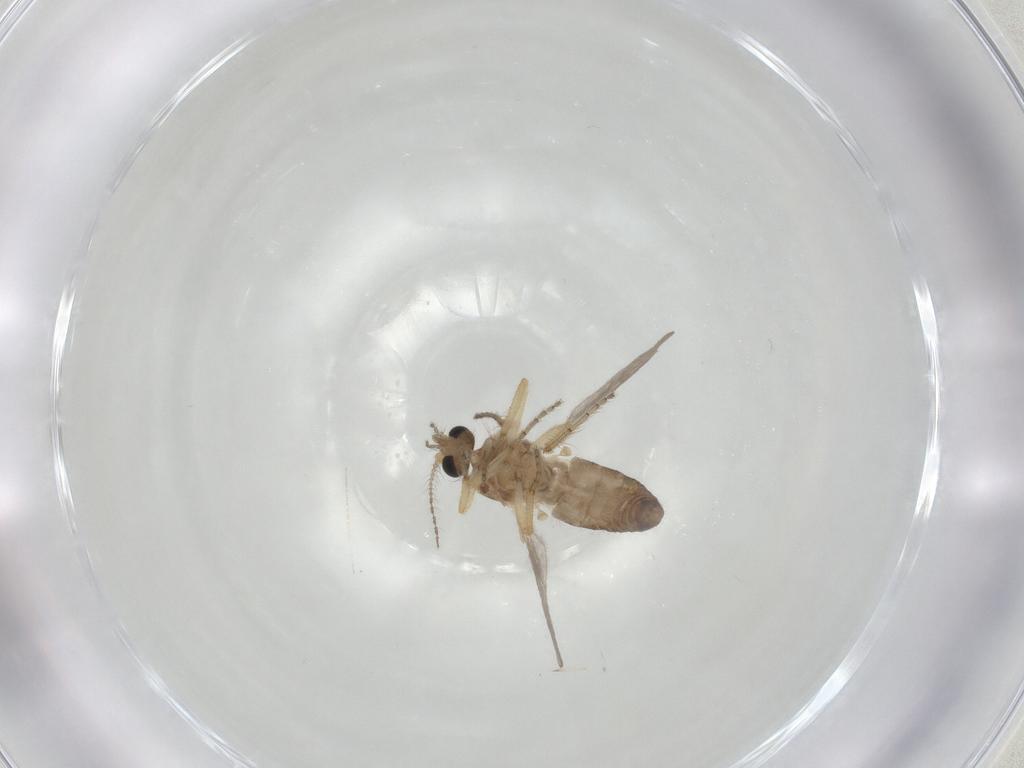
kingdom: Animalia
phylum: Arthropoda
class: Insecta
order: Diptera
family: Ceratopogonidae
